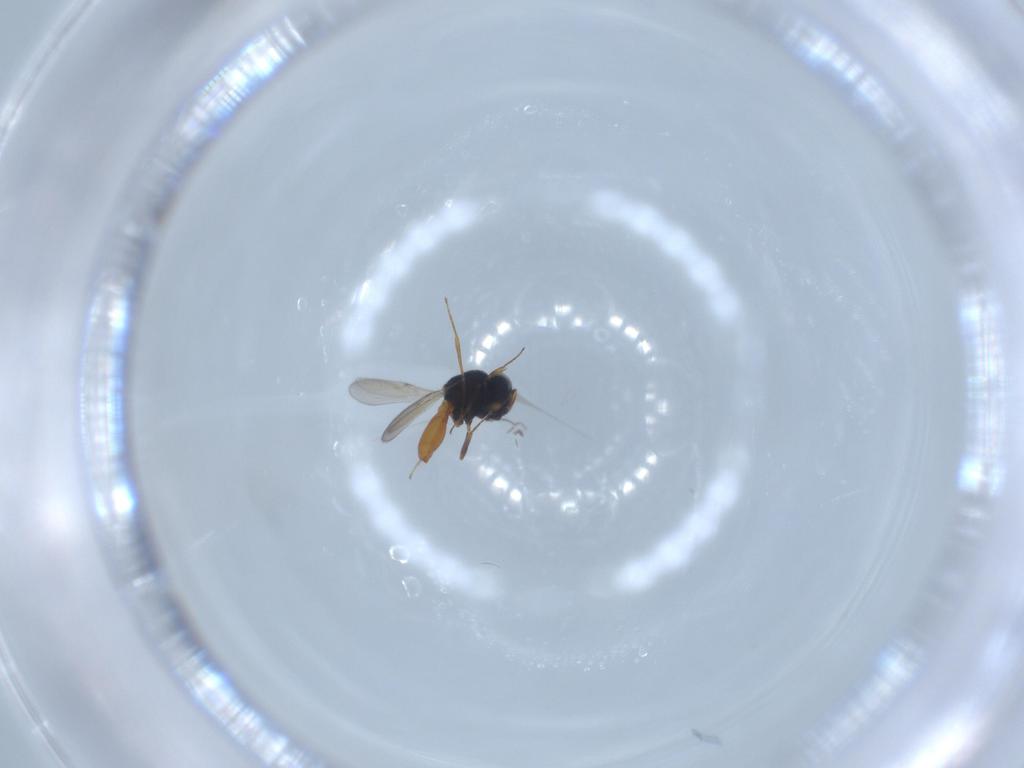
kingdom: Animalia
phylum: Arthropoda
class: Insecta
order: Hymenoptera
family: Scelionidae
